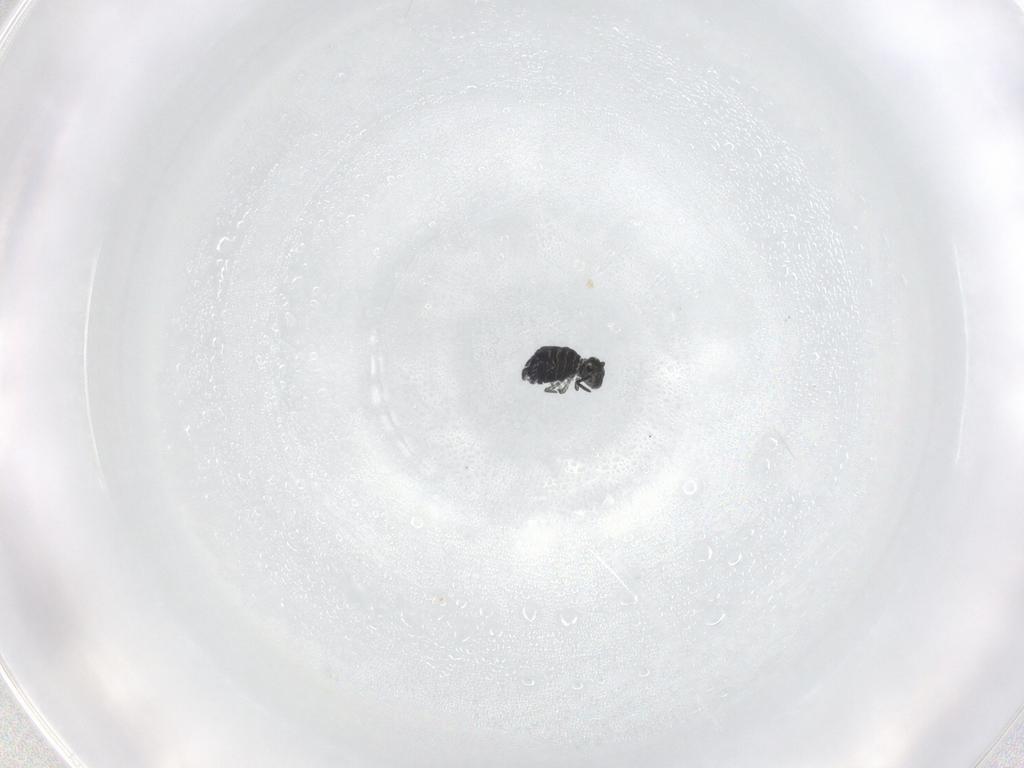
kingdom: Animalia
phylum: Arthropoda
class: Collembola
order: Symphypleona
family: Katiannidae
